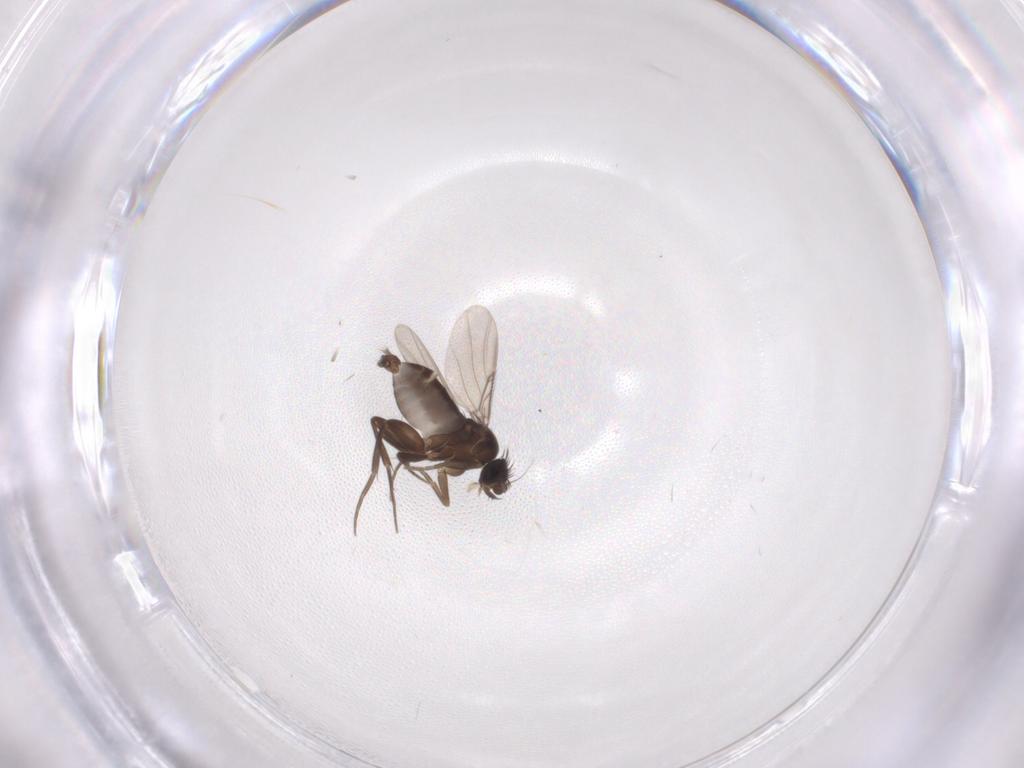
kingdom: Animalia
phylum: Arthropoda
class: Insecta
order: Diptera
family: Phoridae
